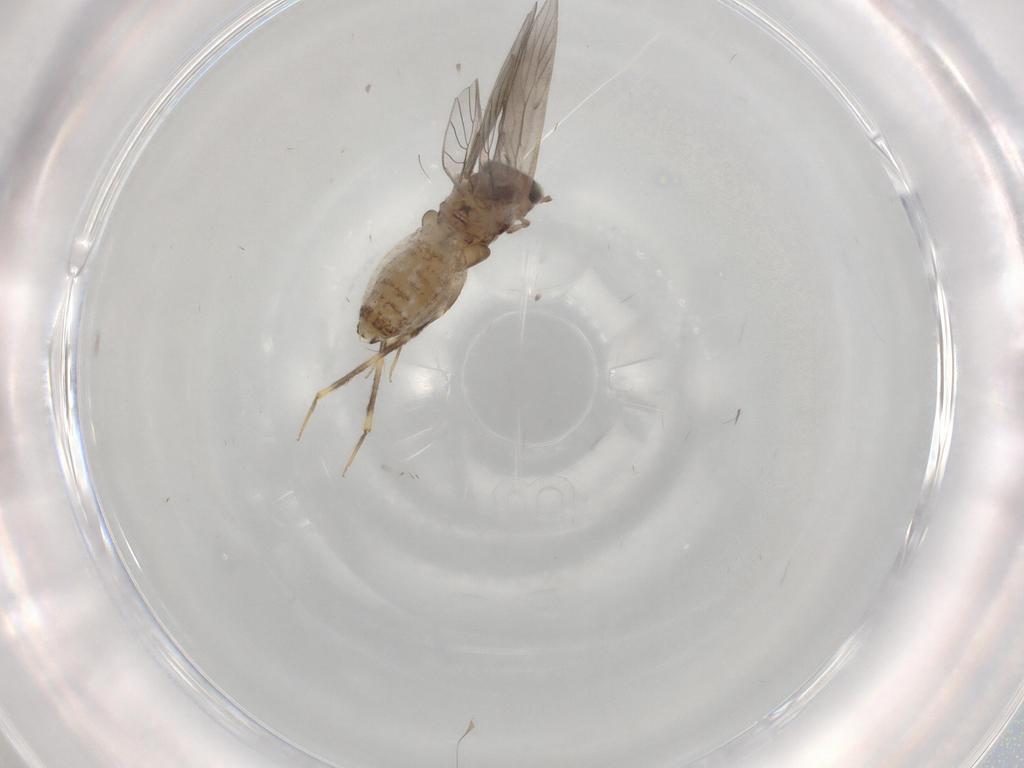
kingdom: Animalia
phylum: Arthropoda
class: Insecta
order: Psocodea
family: Lepidopsocidae
